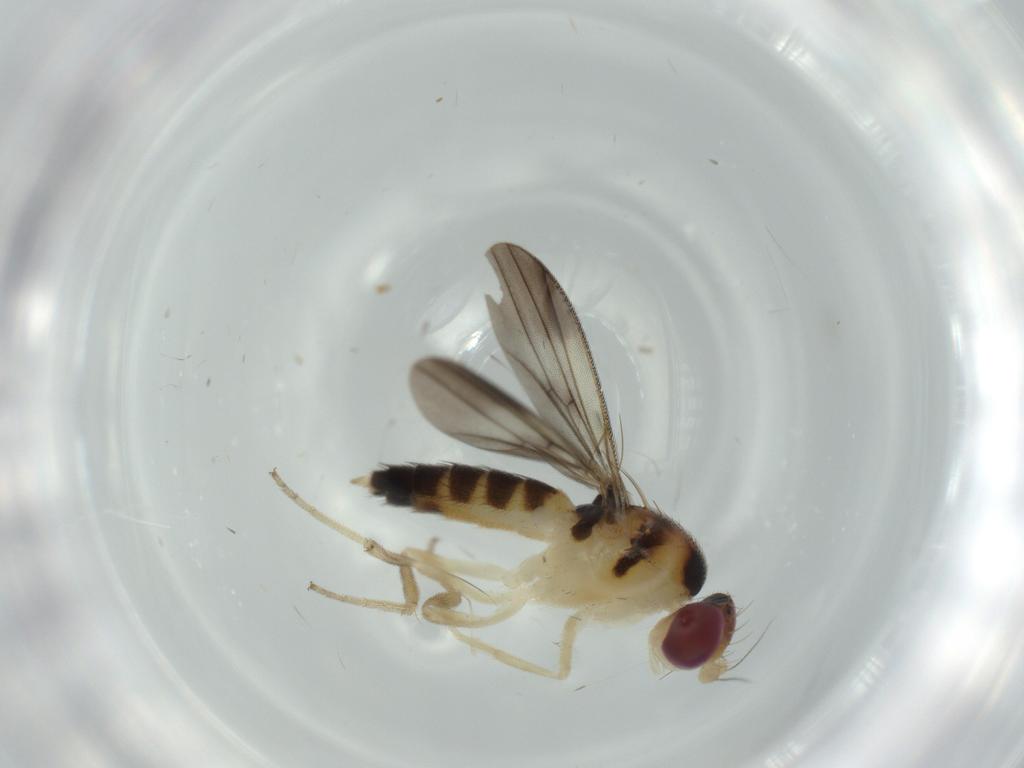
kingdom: Animalia
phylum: Arthropoda
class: Insecta
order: Diptera
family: Clusiidae
